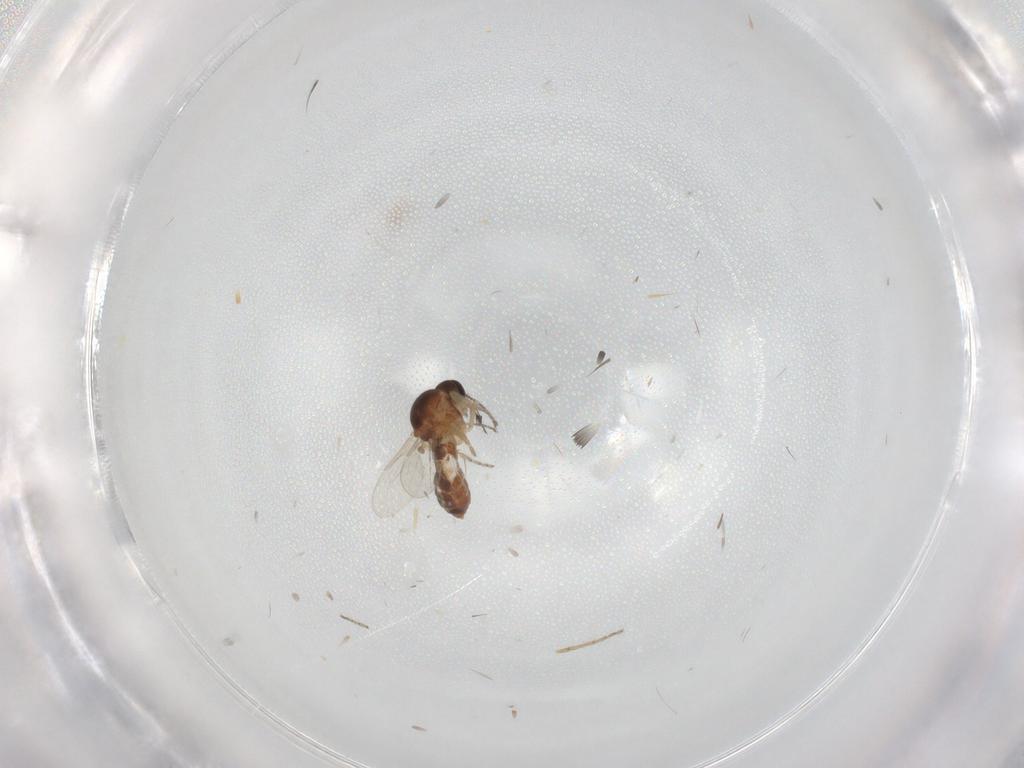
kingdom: Animalia
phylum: Arthropoda
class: Insecta
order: Diptera
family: Ceratopogonidae
